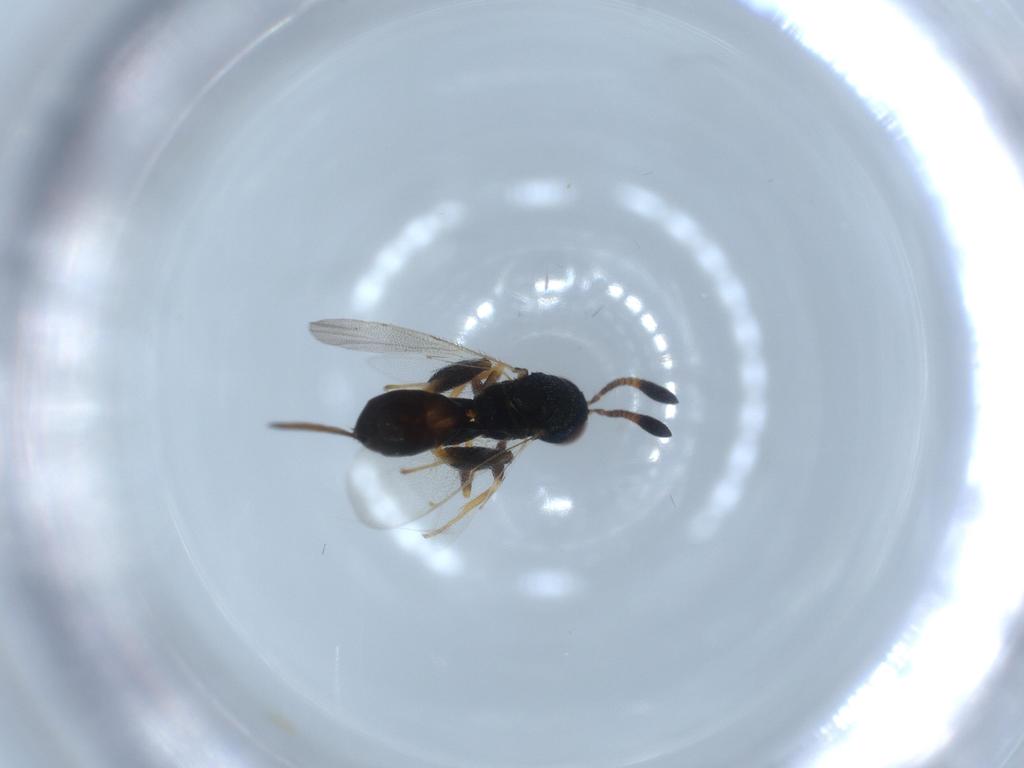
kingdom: Animalia
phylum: Arthropoda
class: Insecta
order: Hymenoptera
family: Torymidae
